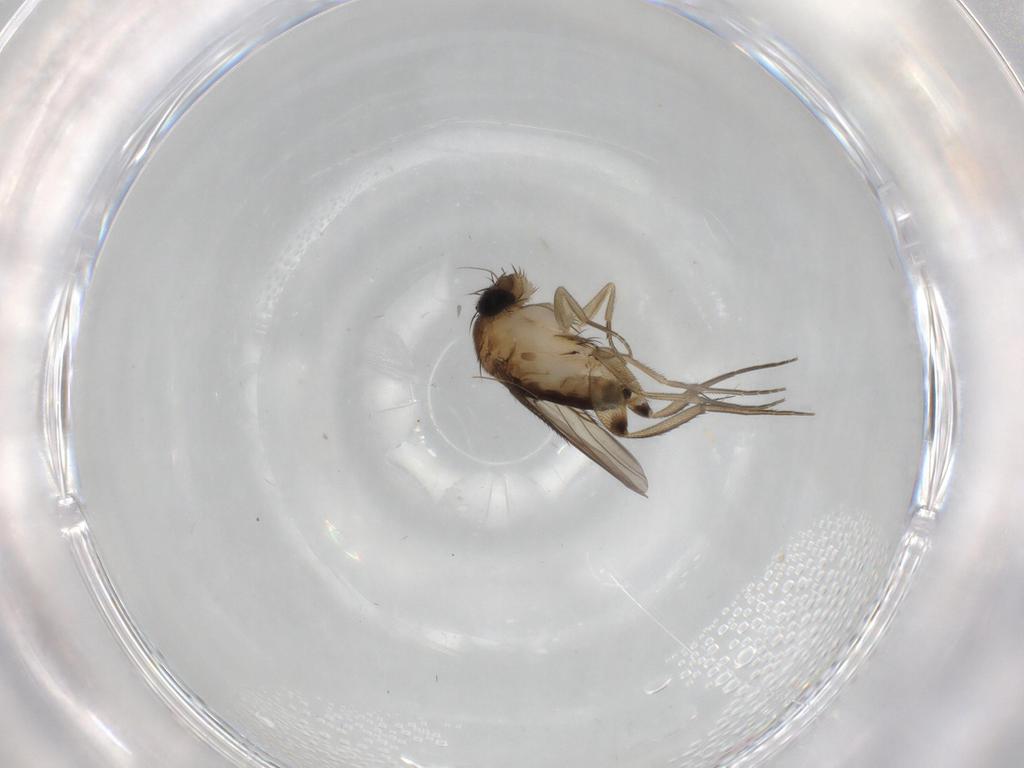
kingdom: Animalia
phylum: Arthropoda
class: Insecta
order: Diptera
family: Phoridae
